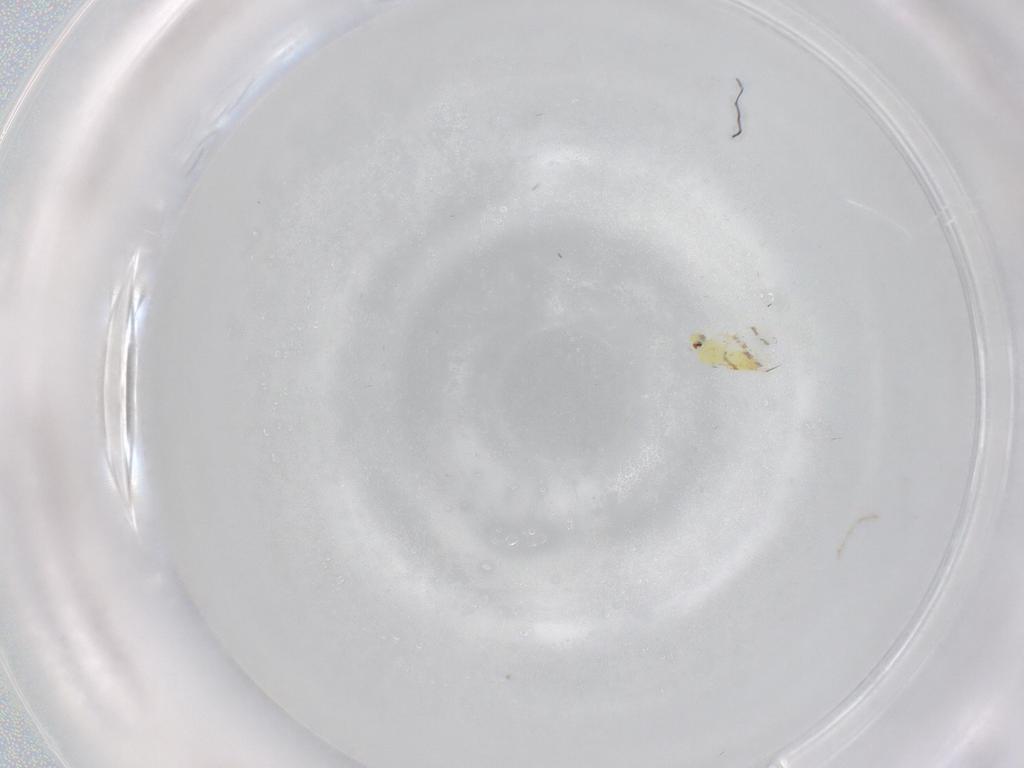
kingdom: Animalia
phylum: Arthropoda
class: Insecta
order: Hemiptera
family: Aleyrodidae
